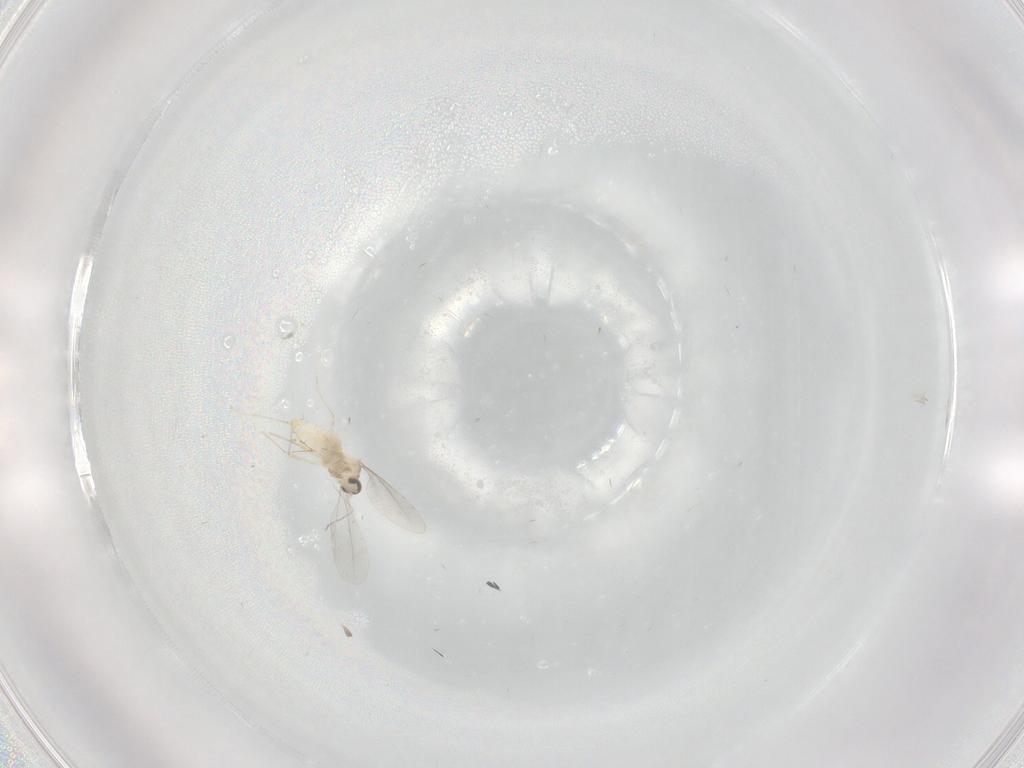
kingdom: Animalia
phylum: Arthropoda
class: Insecta
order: Diptera
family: Cecidomyiidae
